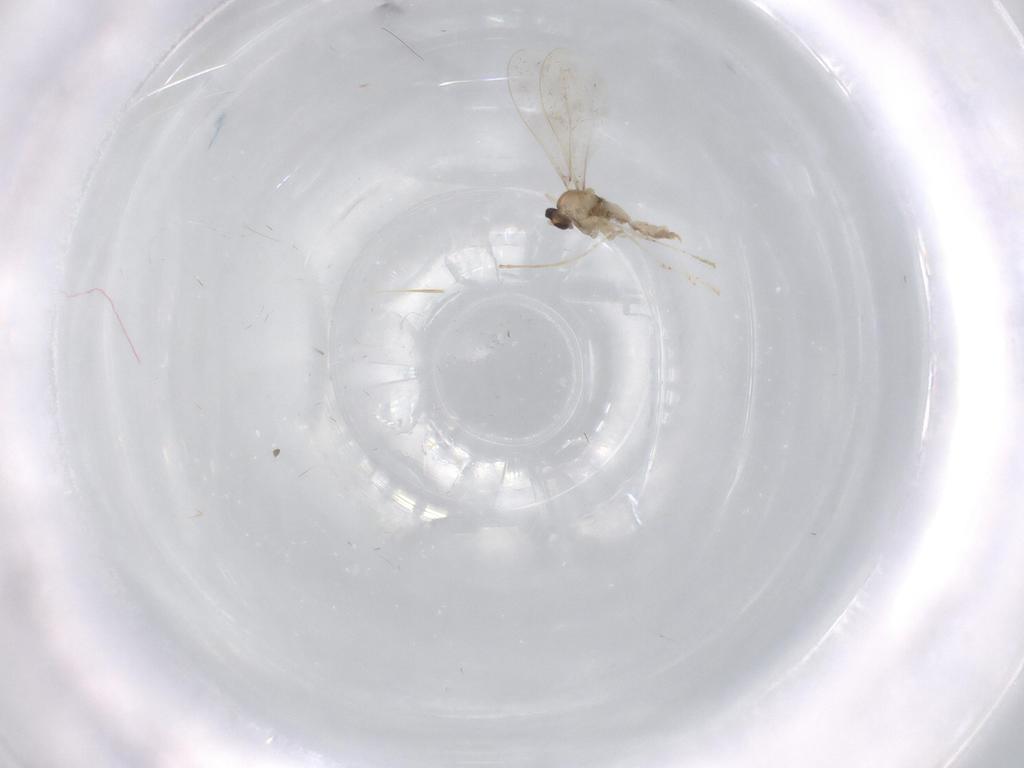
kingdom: Animalia
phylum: Arthropoda
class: Insecta
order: Diptera
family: Cecidomyiidae
